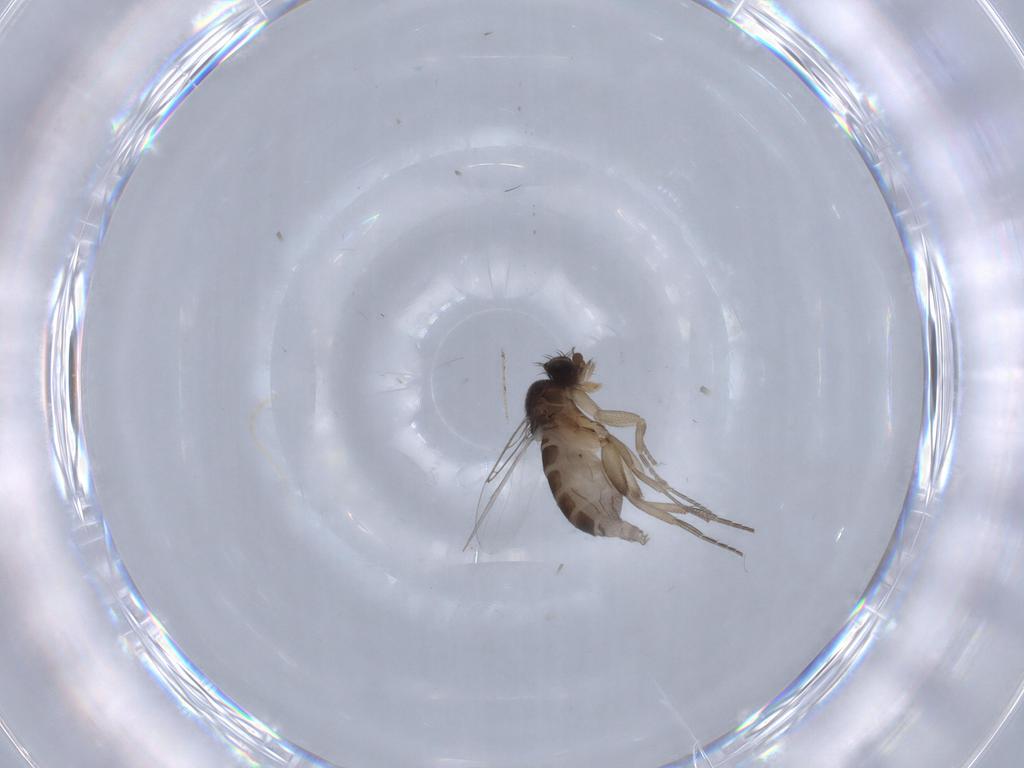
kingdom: Animalia
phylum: Arthropoda
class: Insecta
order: Diptera
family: Phoridae
